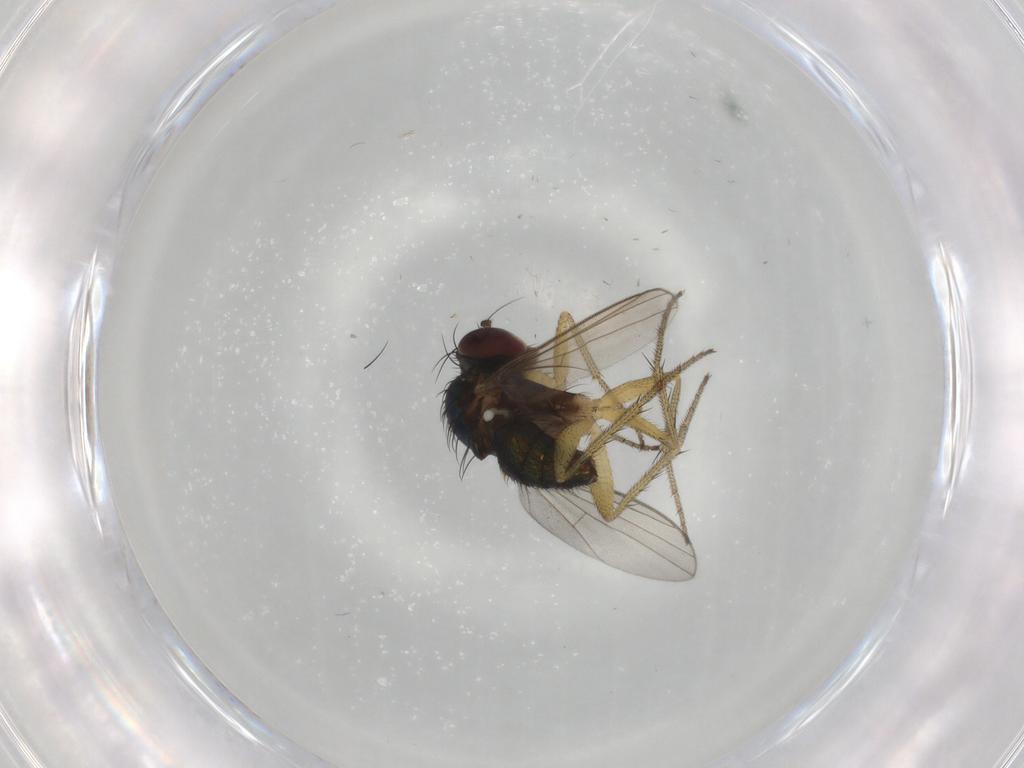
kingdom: Animalia
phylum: Arthropoda
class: Insecta
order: Diptera
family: Dolichopodidae
